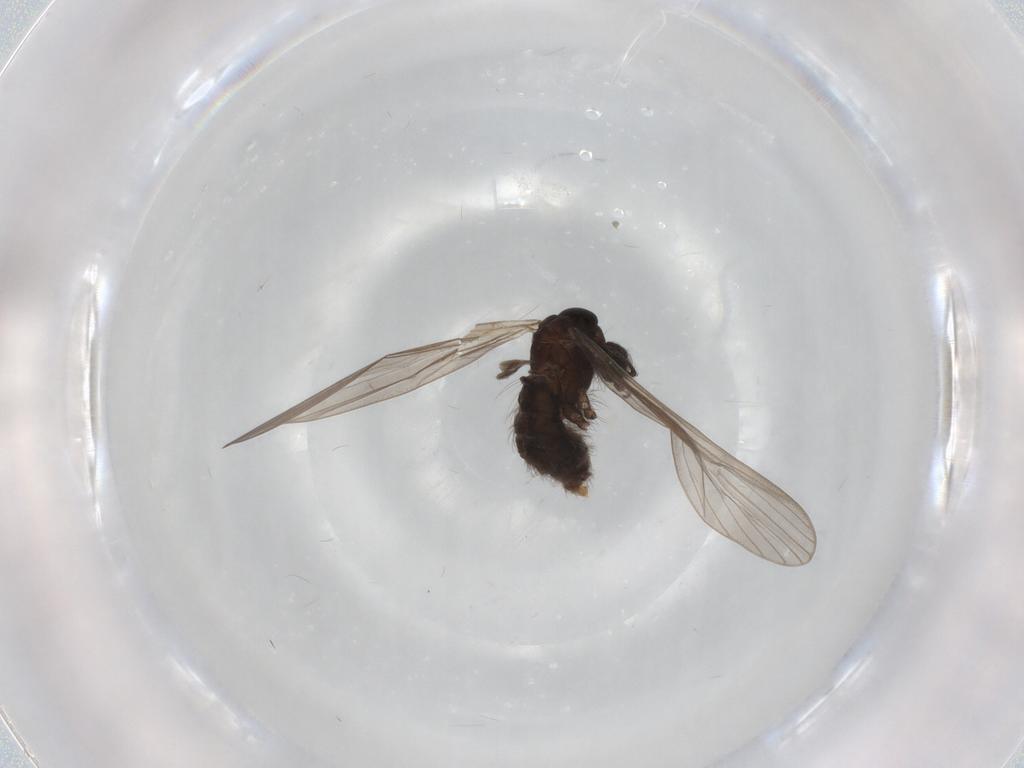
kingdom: Animalia
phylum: Arthropoda
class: Insecta
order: Diptera
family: Limoniidae
